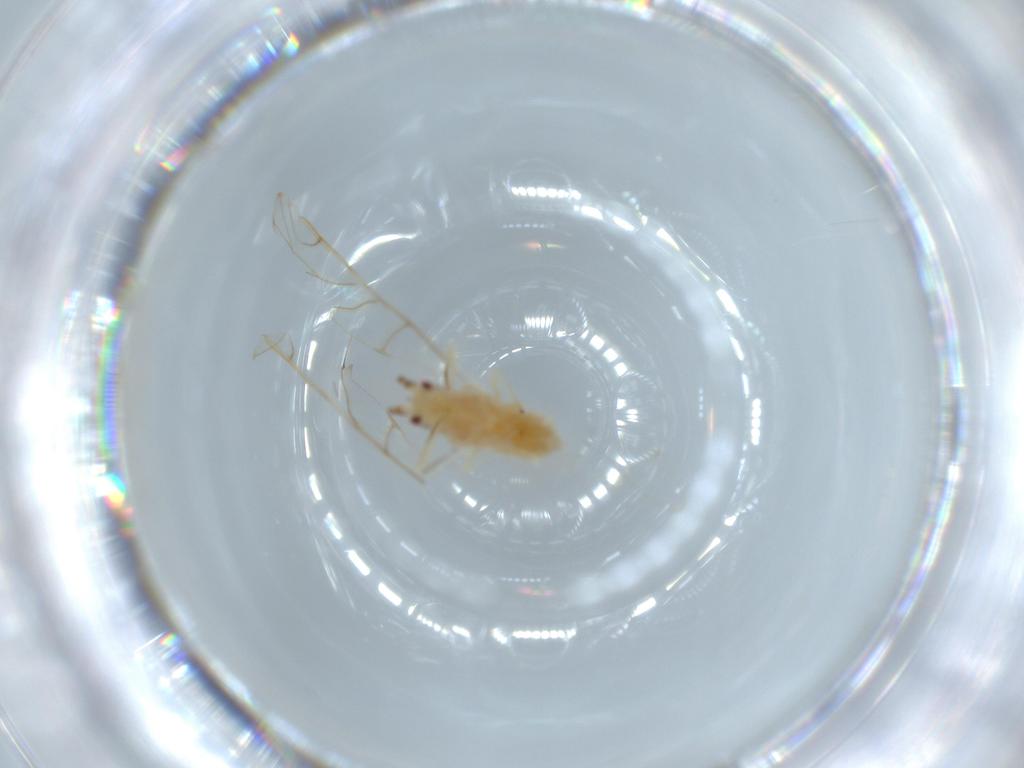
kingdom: Animalia
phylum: Arthropoda
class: Insecta
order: Hemiptera
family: Aphididae
